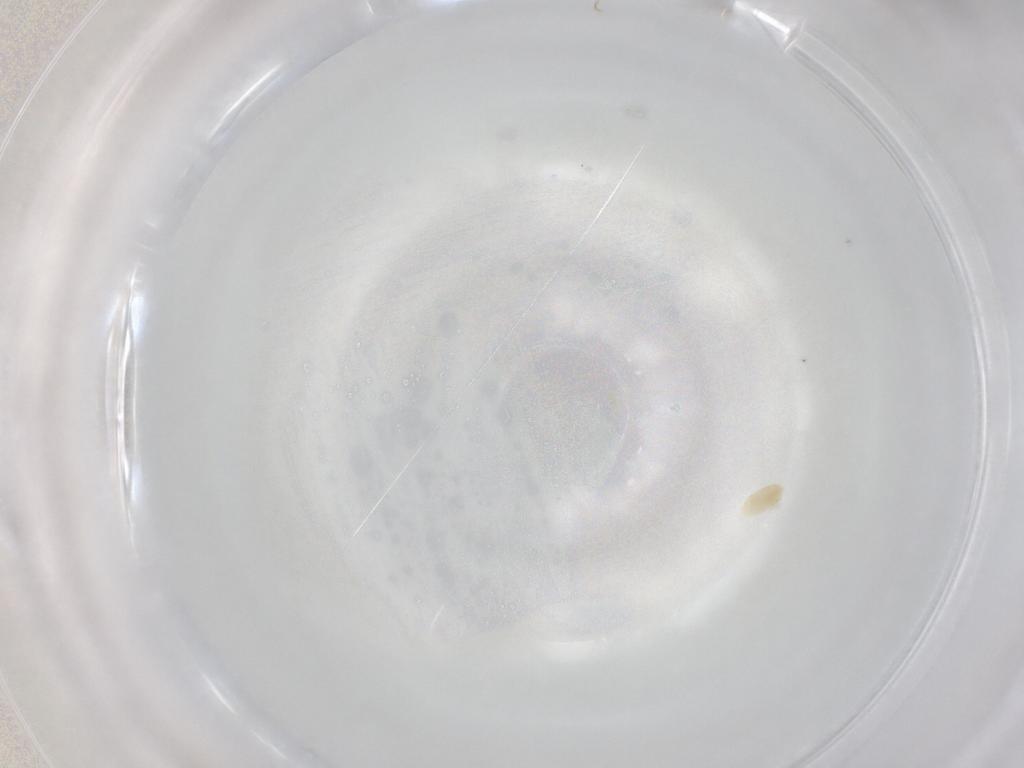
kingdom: Animalia
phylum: Arthropoda
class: Arachnida
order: Trombidiformes
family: Eupodidae
